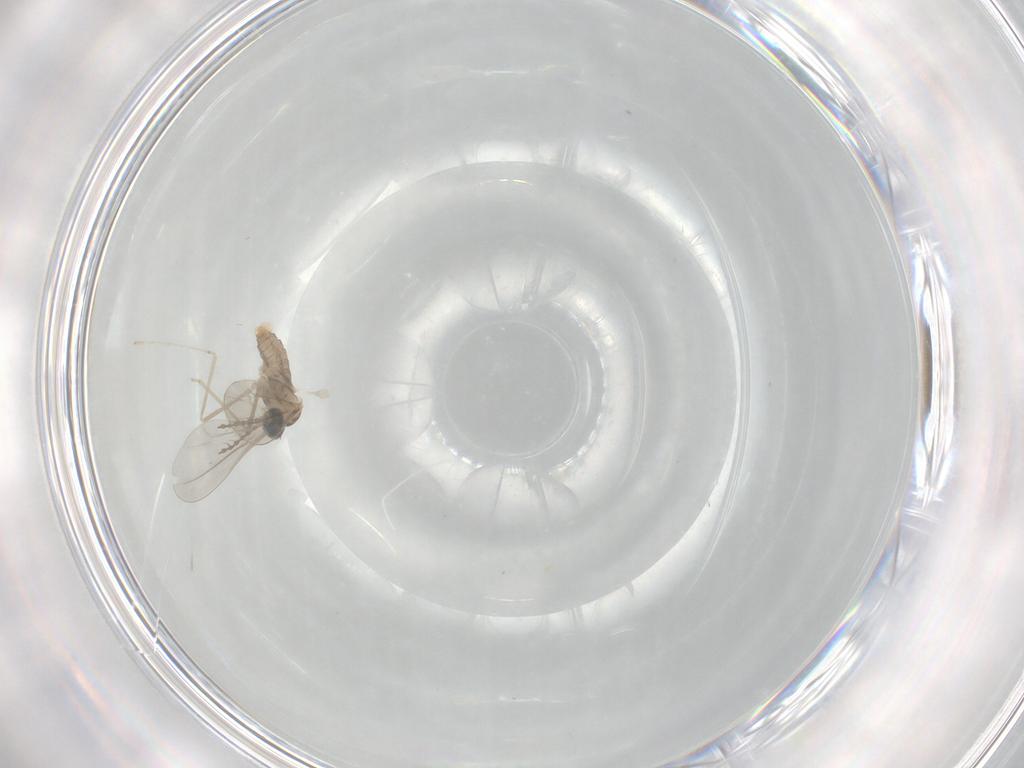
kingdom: Animalia
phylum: Arthropoda
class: Insecta
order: Diptera
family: Cecidomyiidae
